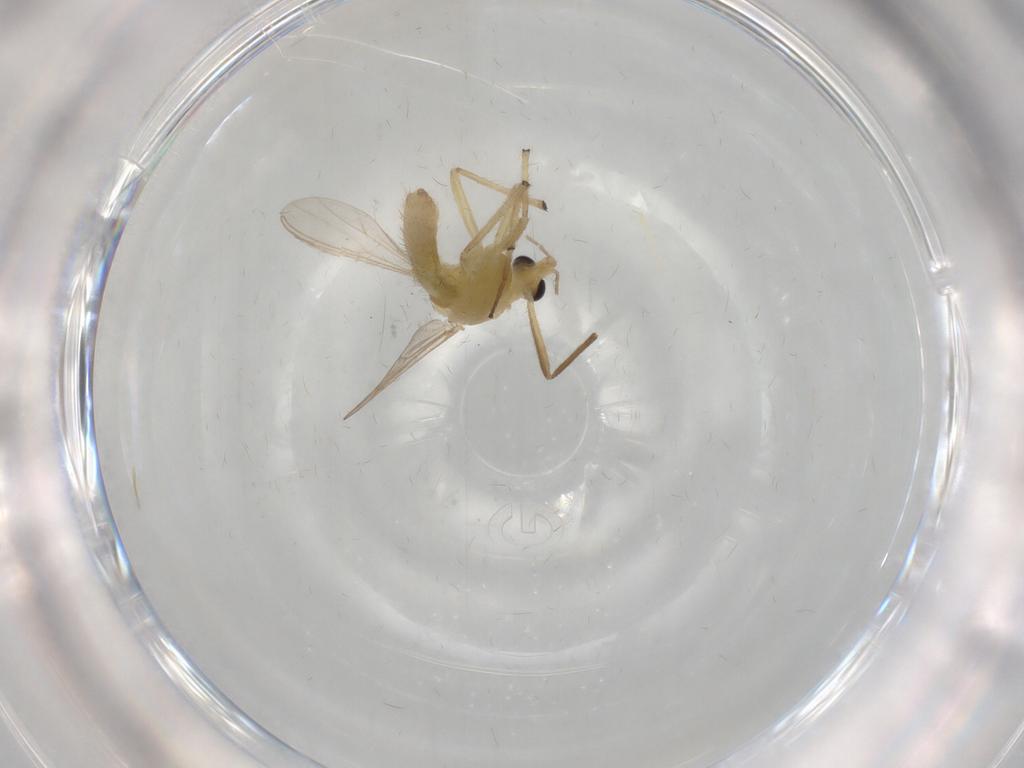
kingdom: Animalia
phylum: Arthropoda
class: Insecta
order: Diptera
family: Chironomidae
